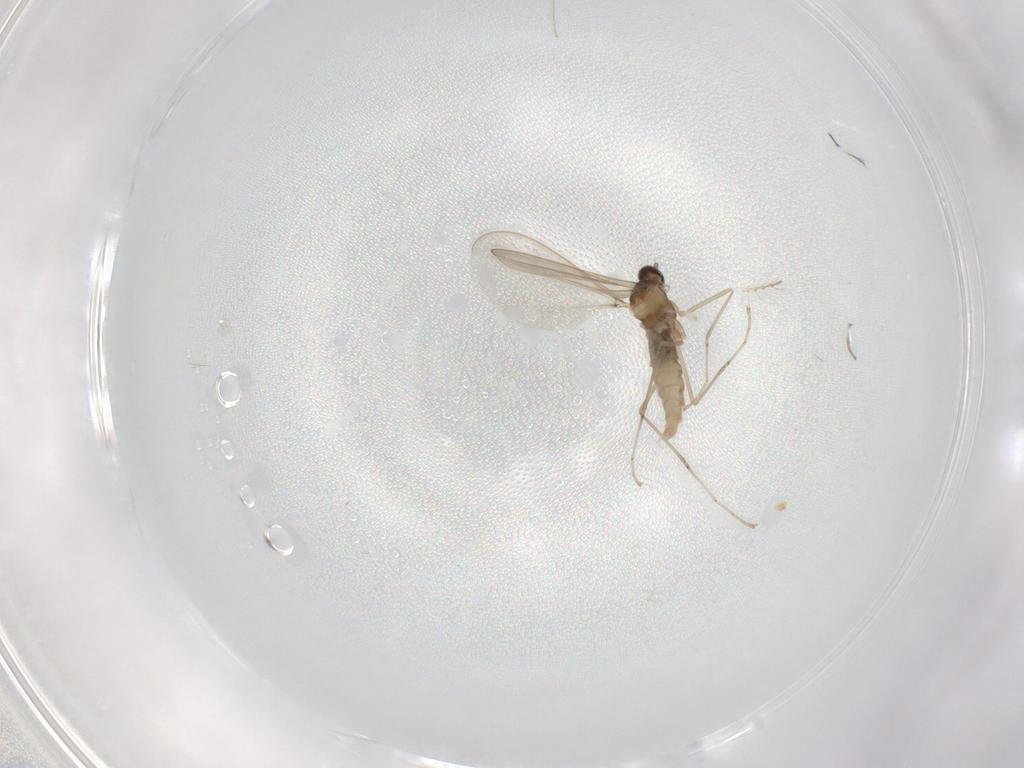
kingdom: Animalia
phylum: Arthropoda
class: Insecta
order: Diptera
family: Chironomidae
